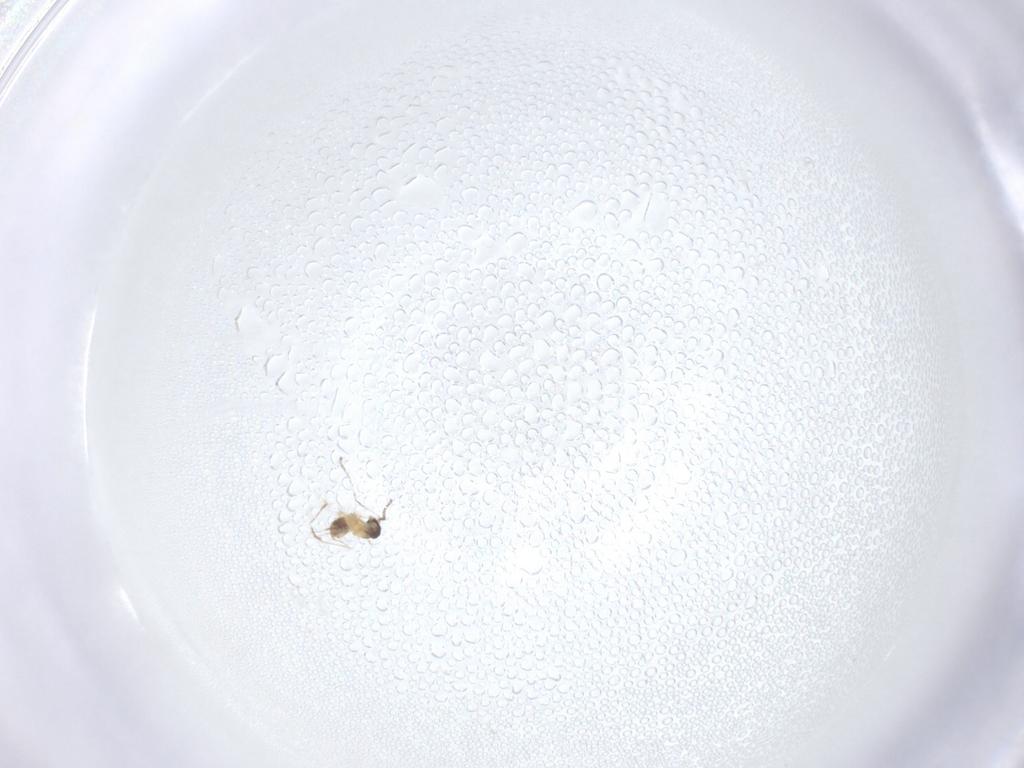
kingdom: Animalia
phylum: Arthropoda
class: Insecta
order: Diptera
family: Cecidomyiidae
